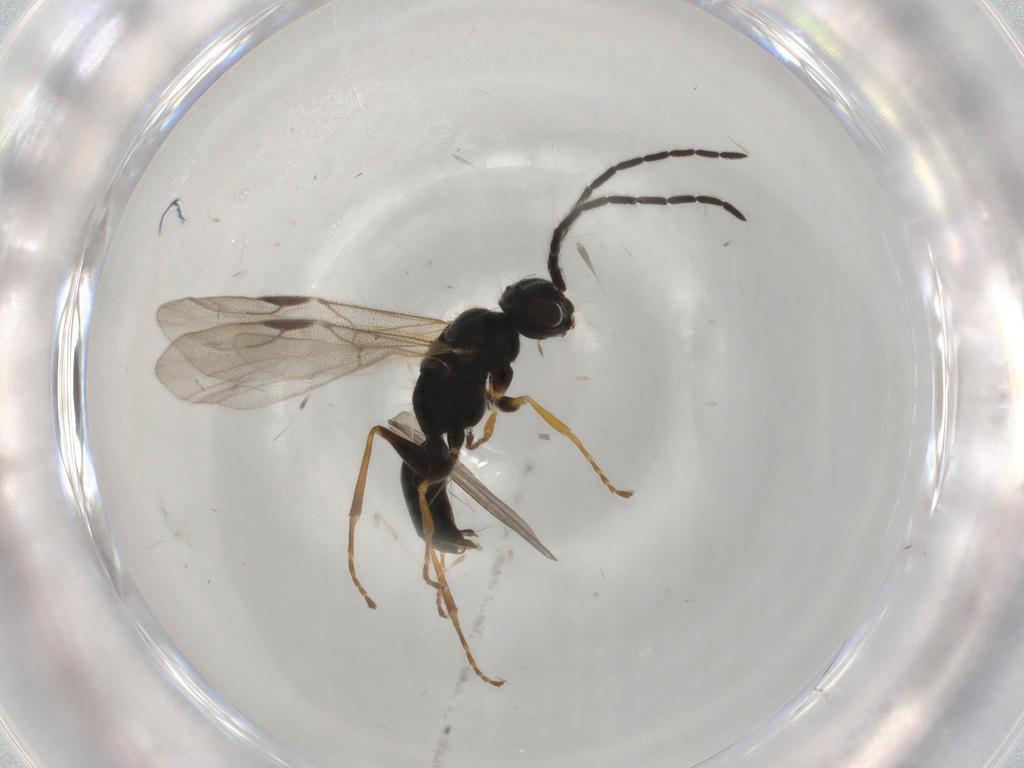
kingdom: Animalia
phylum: Arthropoda
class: Insecta
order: Hymenoptera
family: Dryinidae
